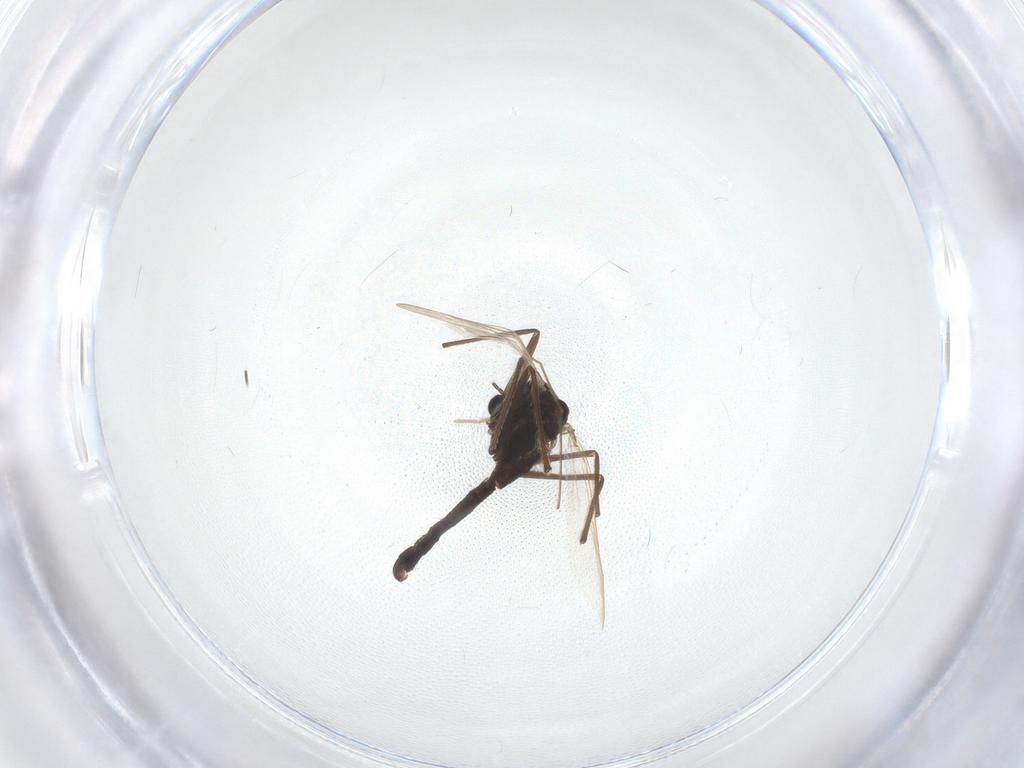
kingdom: Animalia
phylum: Arthropoda
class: Insecta
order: Diptera
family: Chironomidae
